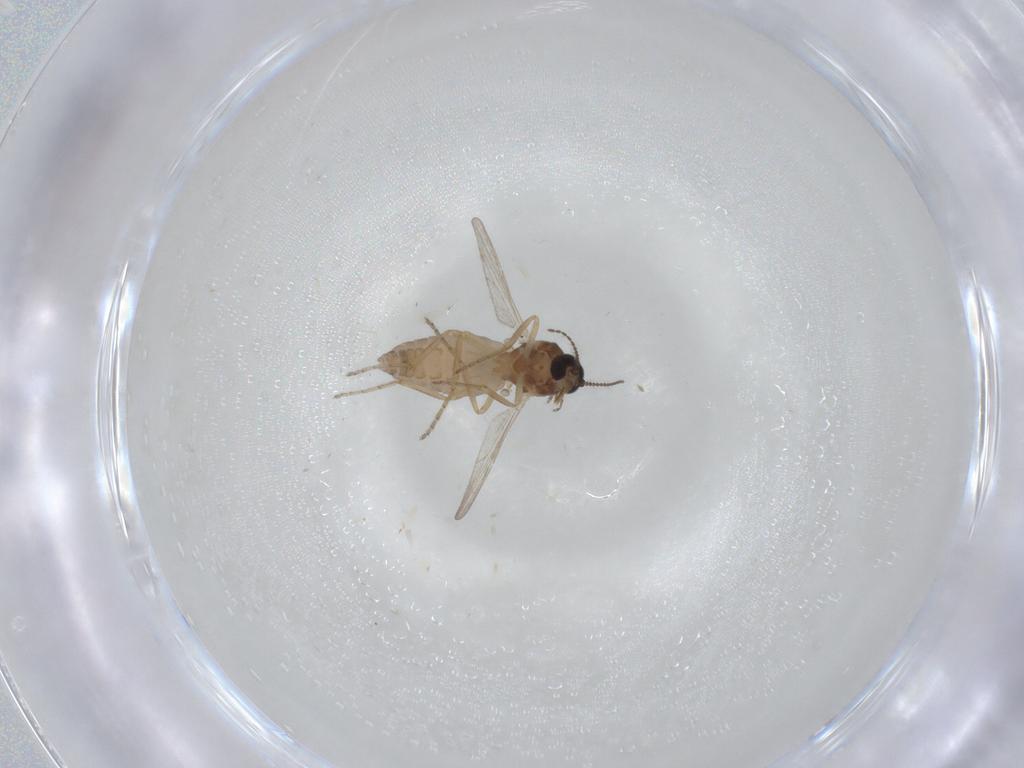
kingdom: Animalia
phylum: Arthropoda
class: Insecta
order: Diptera
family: Anthomyiidae
